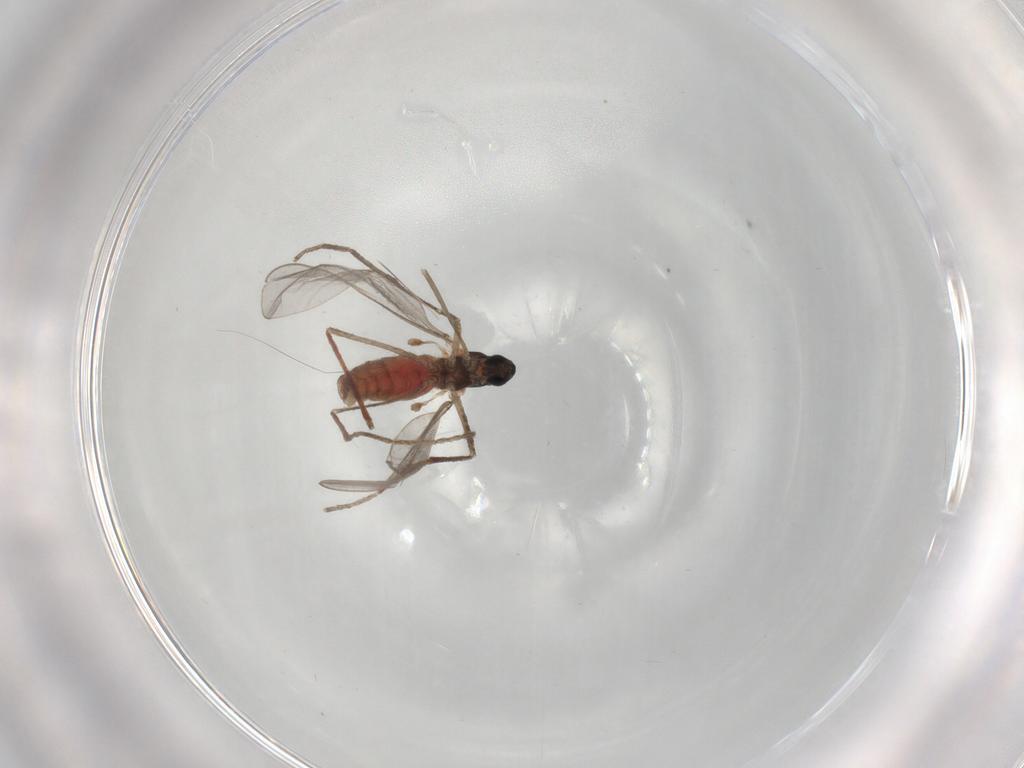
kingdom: Animalia
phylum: Arthropoda
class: Insecta
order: Diptera
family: Cecidomyiidae
